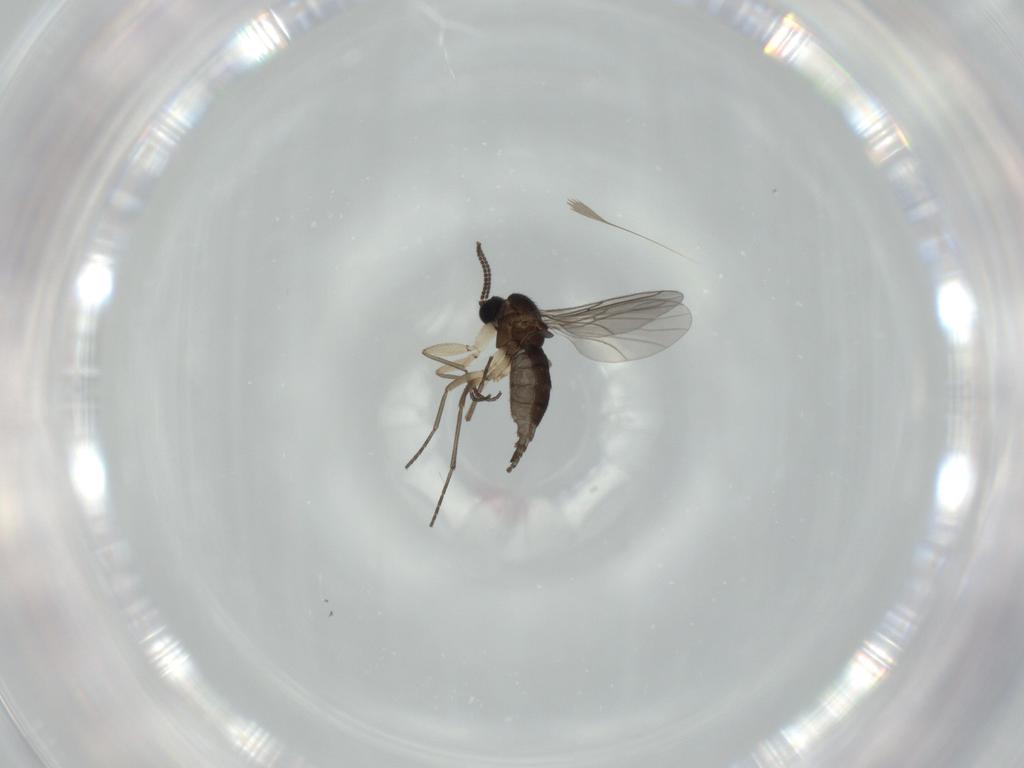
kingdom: Animalia
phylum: Arthropoda
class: Insecta
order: Diptera
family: Sciaridae
